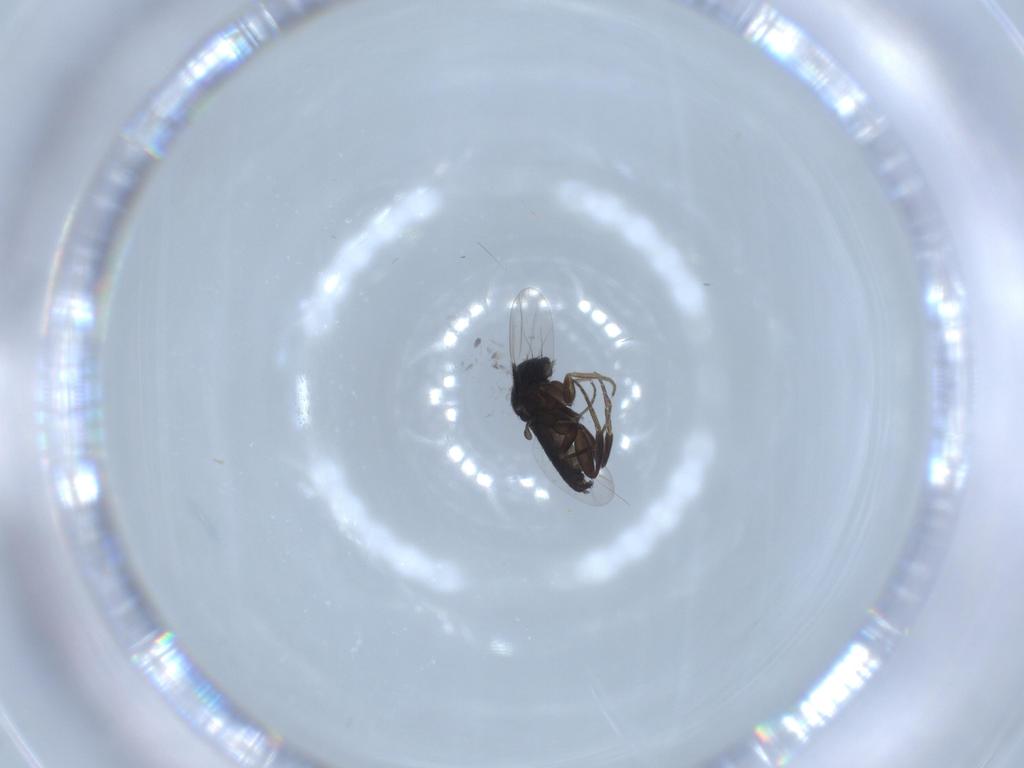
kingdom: Animalia
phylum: Arthropoda
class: Insecta
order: Diptera
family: Phoridae
